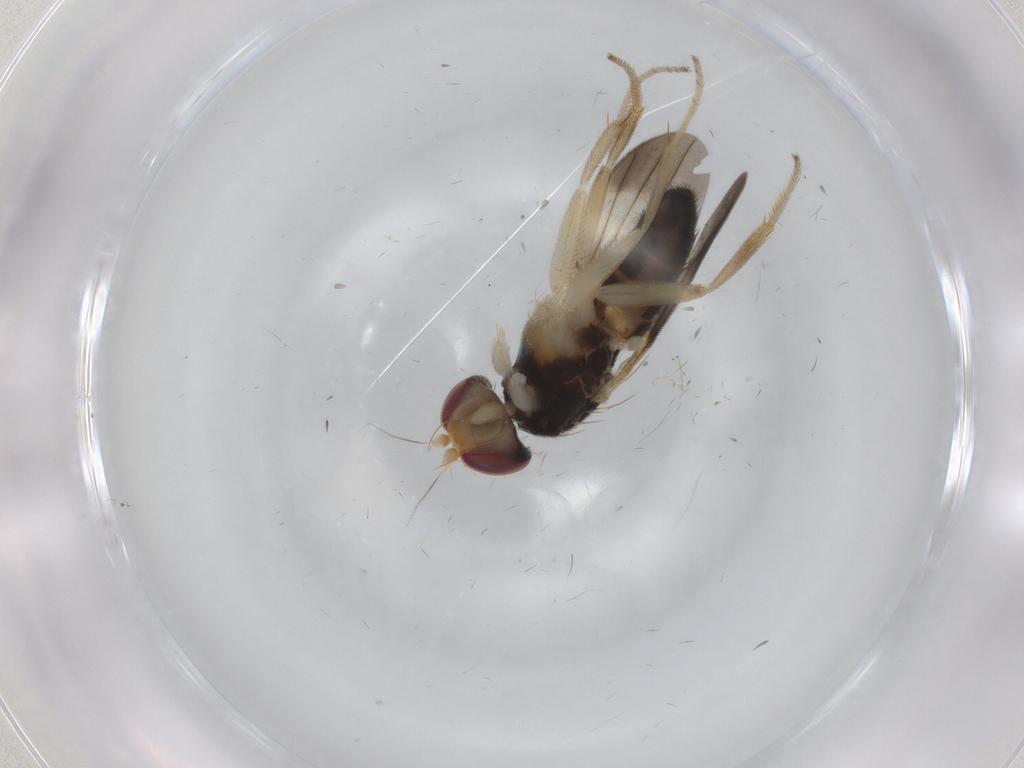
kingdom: Animalia
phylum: Arthropoda
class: Insecta
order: Diptera
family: Clusiidae
